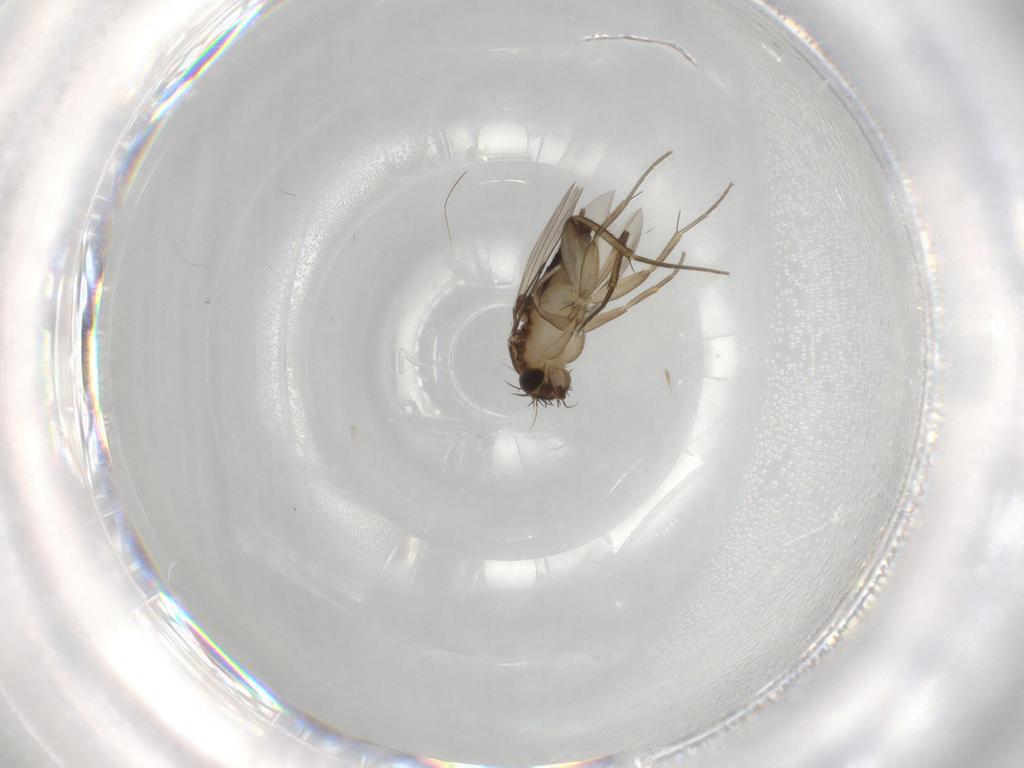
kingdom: Animalia
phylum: Arthropoda
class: Insecta
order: Diptera
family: Phoridae
